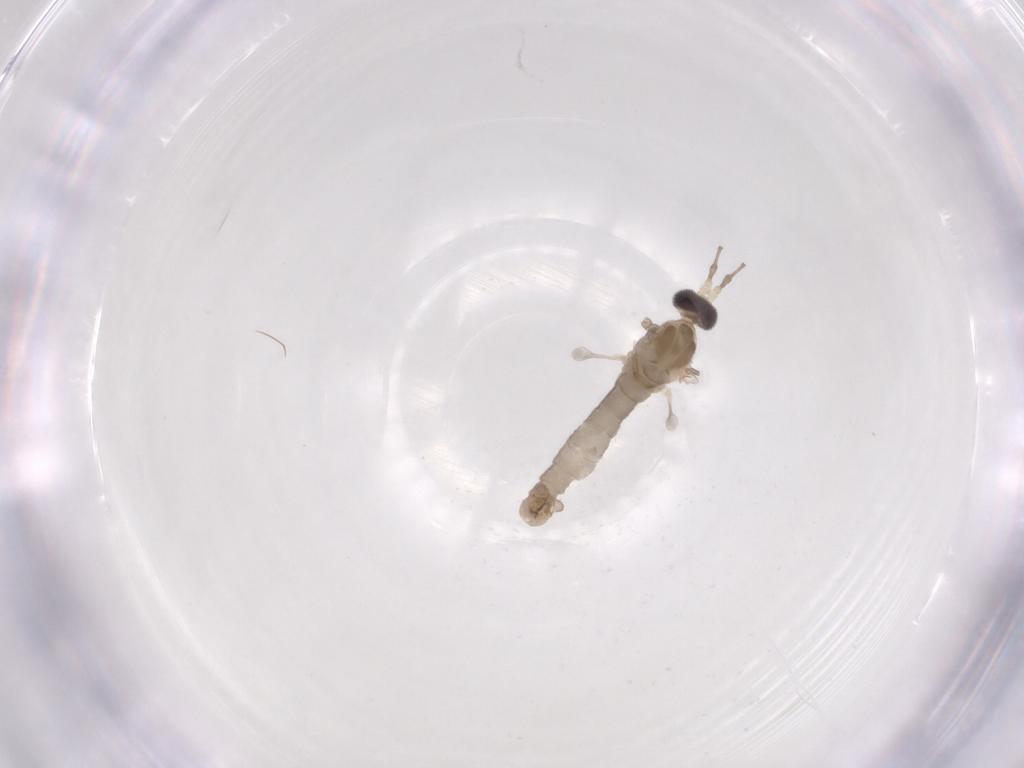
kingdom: Animalia
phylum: Arthropoda
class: Insecta
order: Diptera
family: Cecidomyiidae
